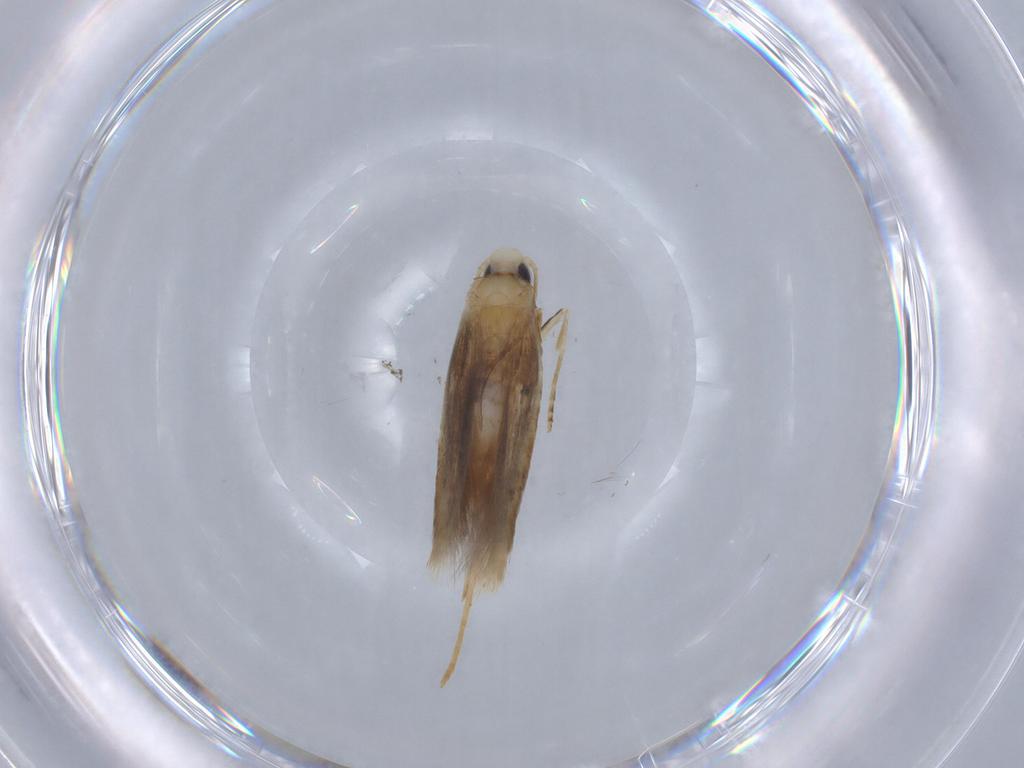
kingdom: Animalia
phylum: Arthropoda
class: Insecta
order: Lepidoptera
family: Tischeriidae
